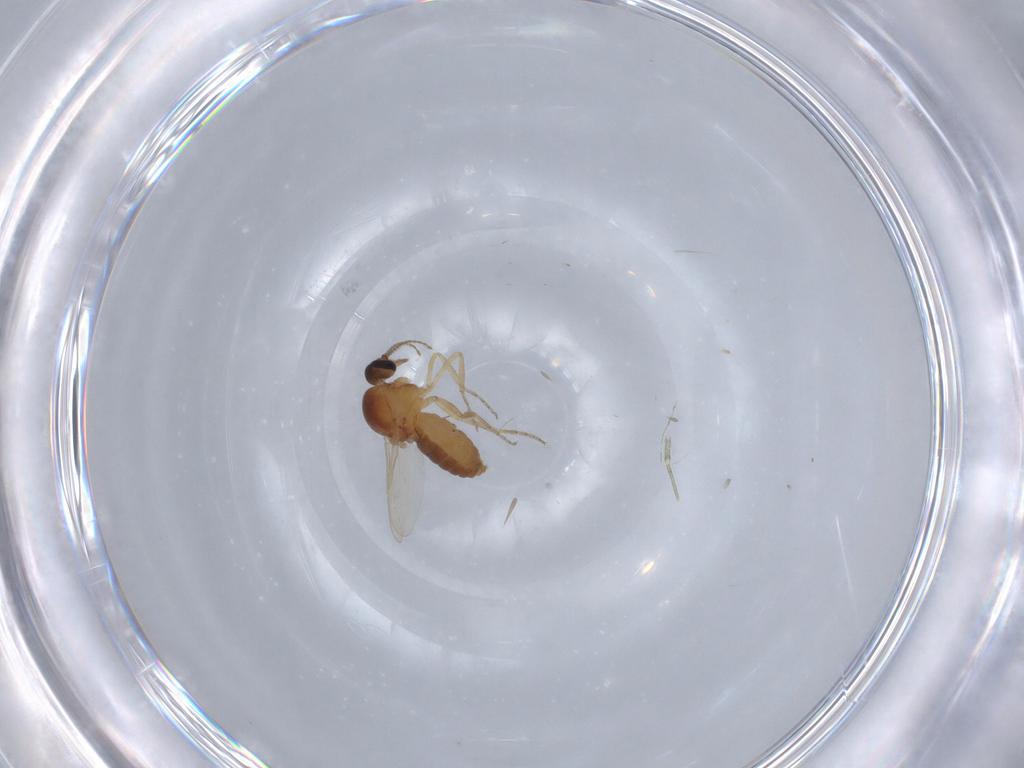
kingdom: Animalia
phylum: Arthropoda
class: Insecta
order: Diptera
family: Ceratopogonidae
